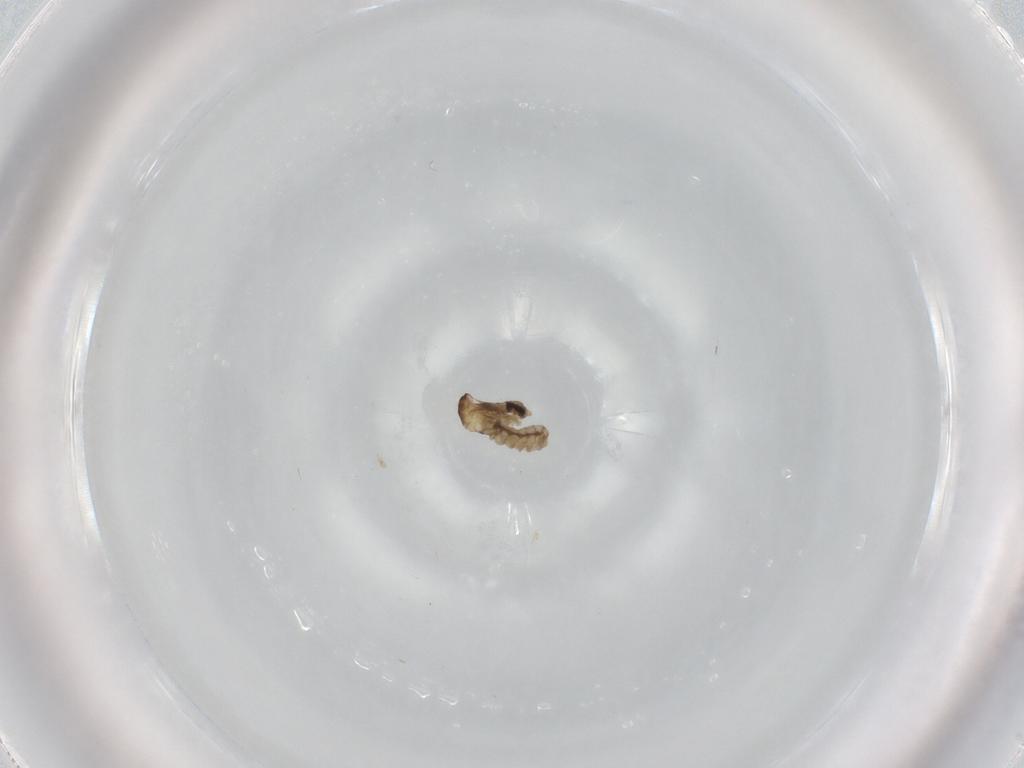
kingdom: Animalia
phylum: Arthropoda
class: Insecta
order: Diptera
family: Cecidomyiidae
